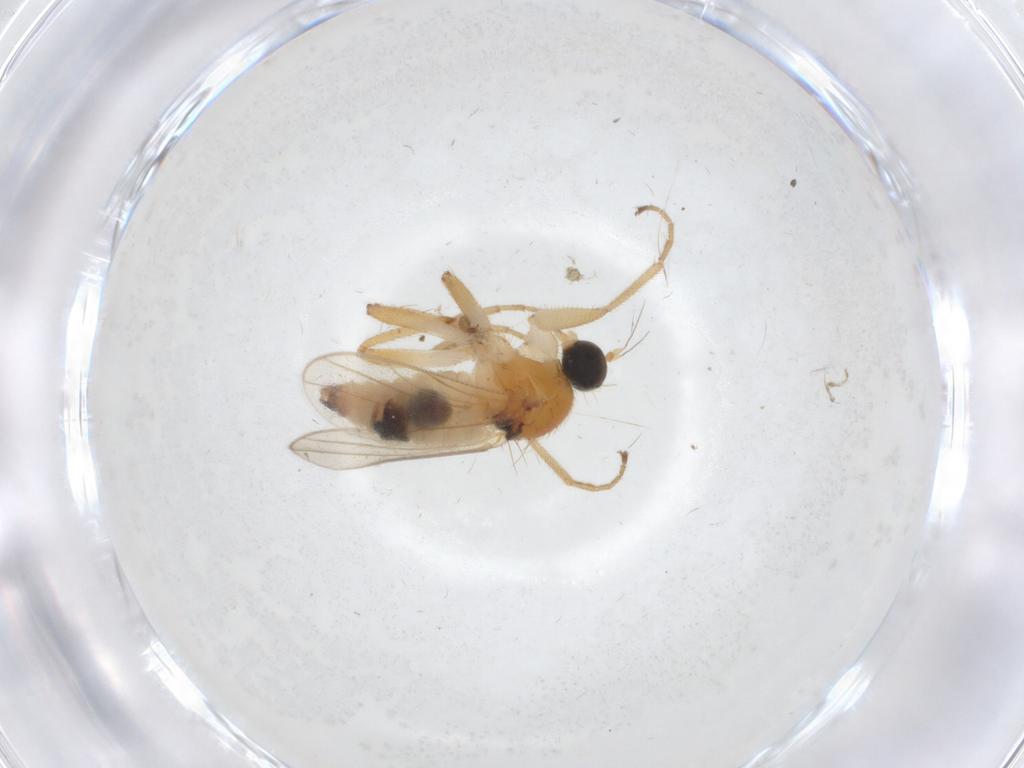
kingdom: Animalia
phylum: Arthropoda
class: Insecta
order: Diptera
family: Hybotidae
